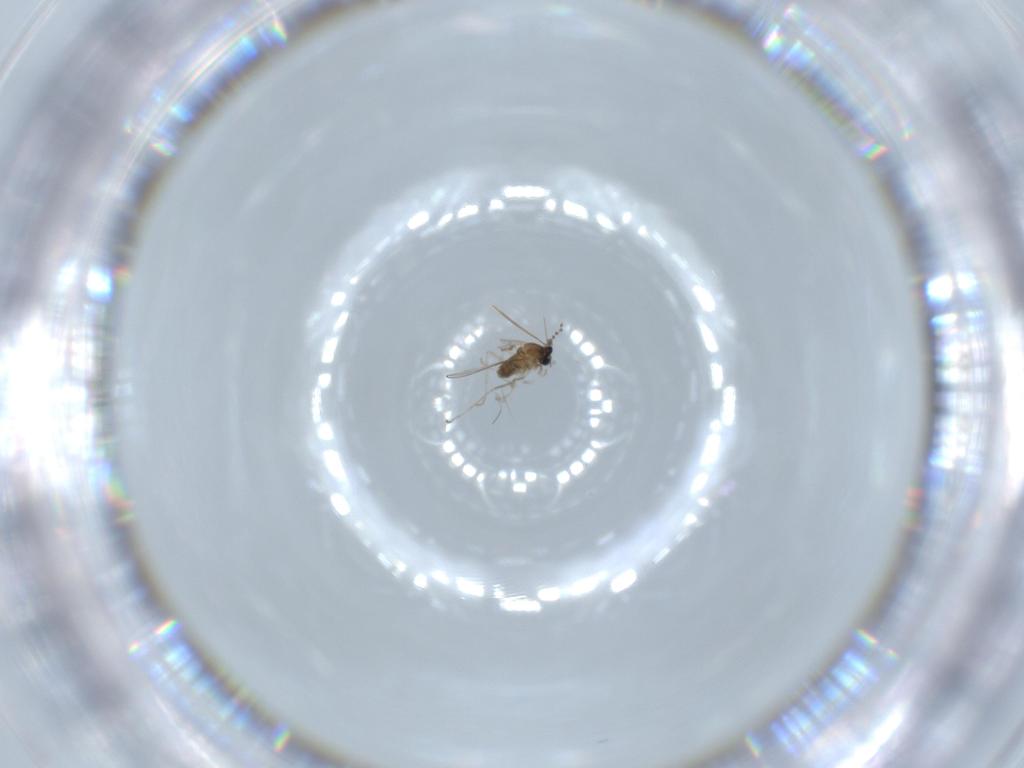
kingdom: Animalia
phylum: Arthropoda
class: Insecta
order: Diptera
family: Cecidomyiidae
